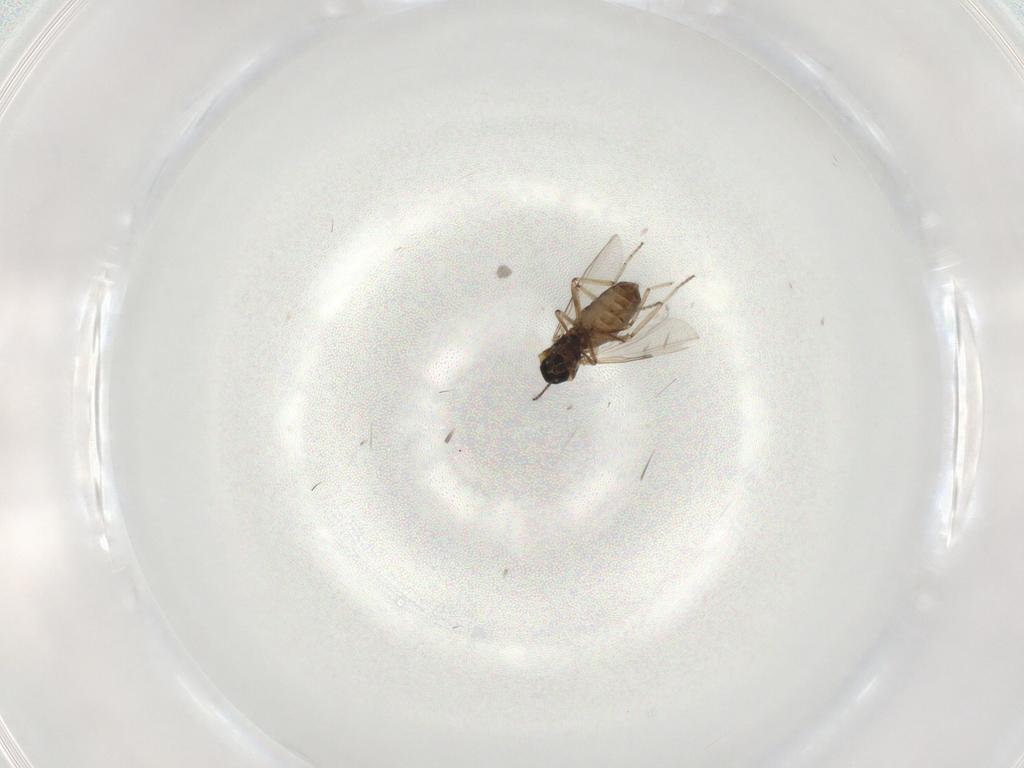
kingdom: Animalia
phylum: Arthropoda
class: Insecta
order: Diptera
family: Ceratopogonidae
